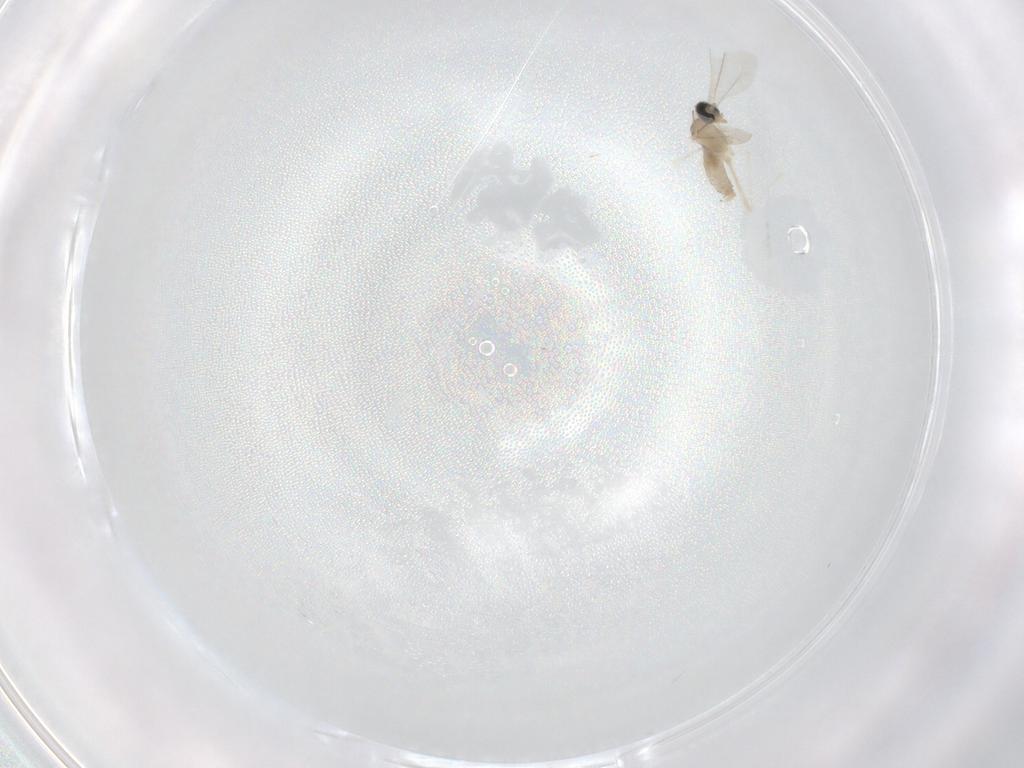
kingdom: Animalia
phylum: Arthropoda
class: Insecta
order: Diptera
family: Cecidomyiidae
